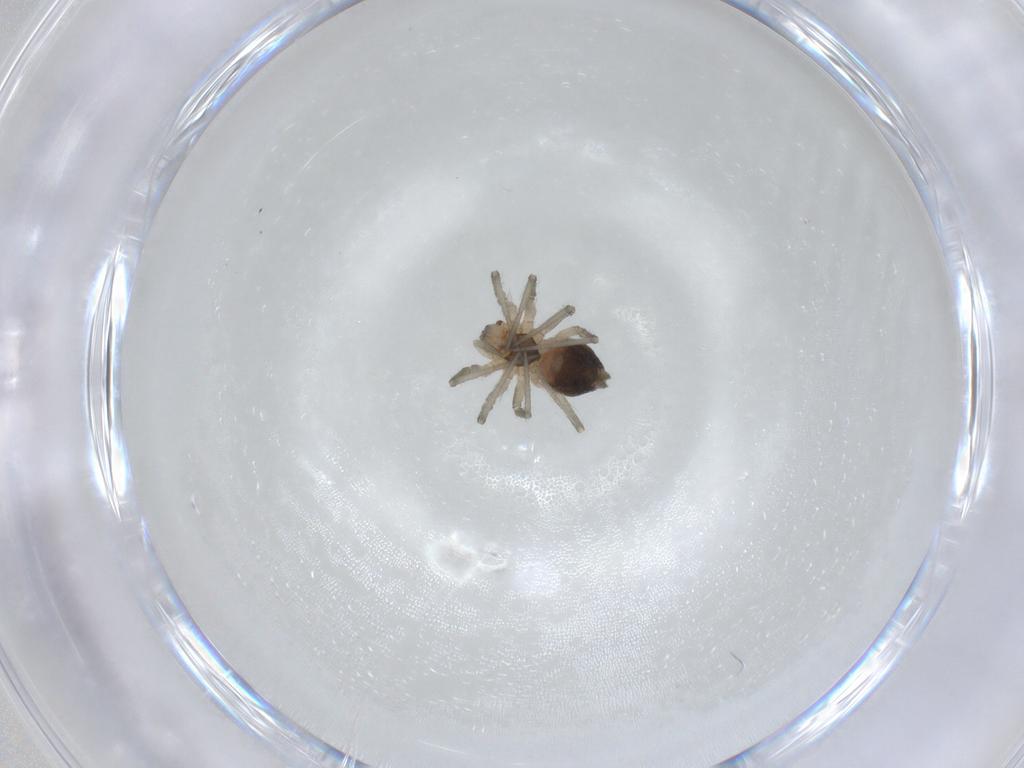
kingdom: Animalia
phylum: Arthropoda
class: Arachnida
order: Araneae
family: Linyphiidae
